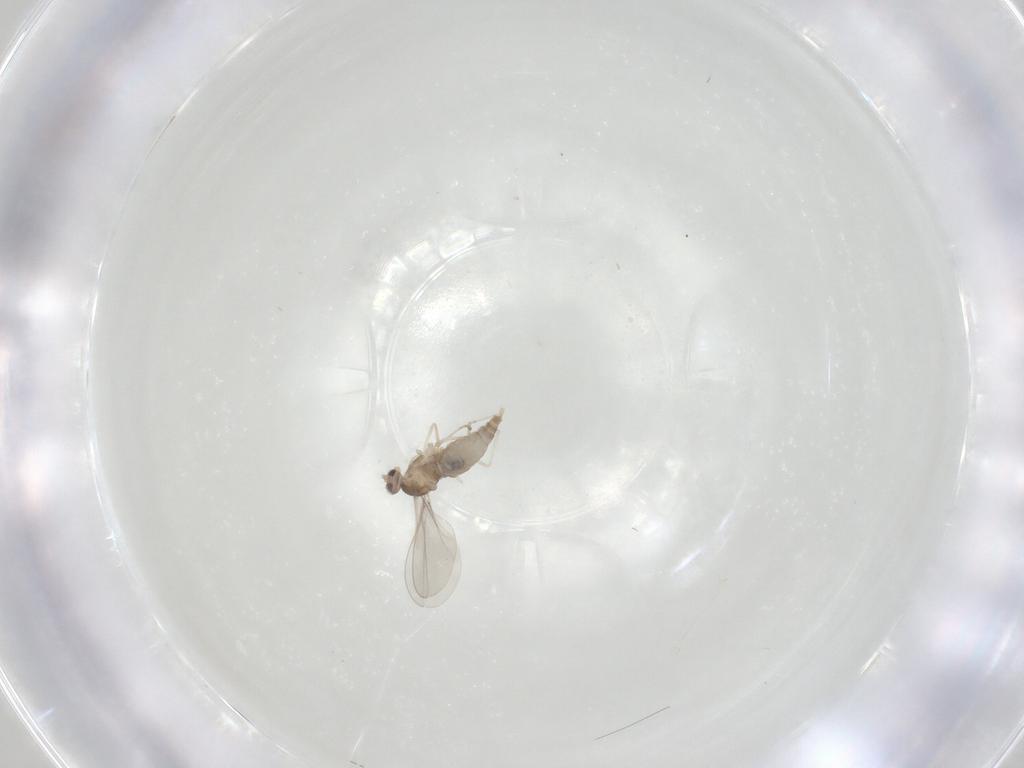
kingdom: Animalia
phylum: Arthropoda
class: Insecta
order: Diptera
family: Cecidomyiidae
